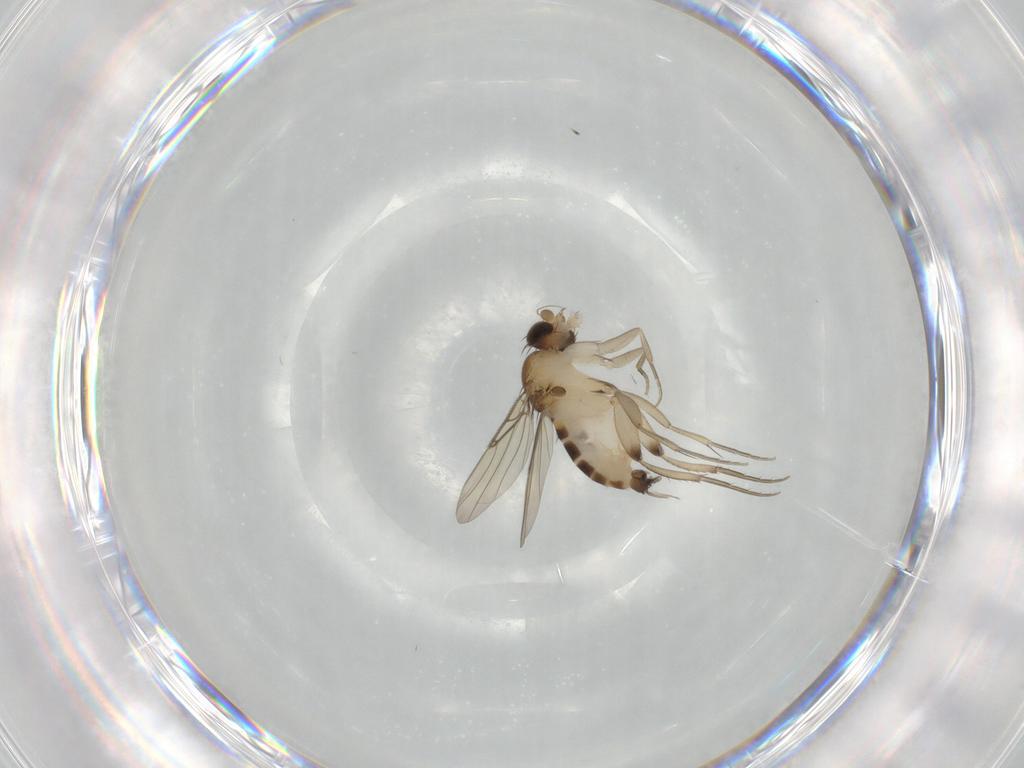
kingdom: Animalia
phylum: Arthropoda
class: Insecta
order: Diptera
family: Phoridae
